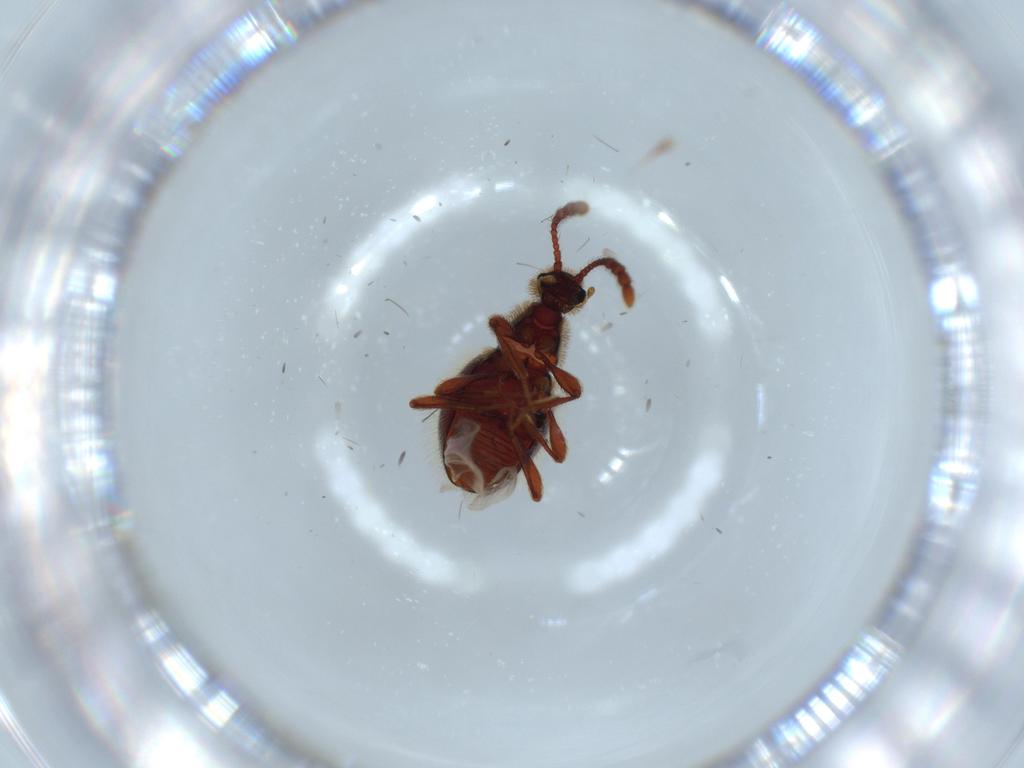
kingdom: Animalia
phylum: Arthropoda
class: Insecta
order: Coleoptera
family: Staphylinidae
